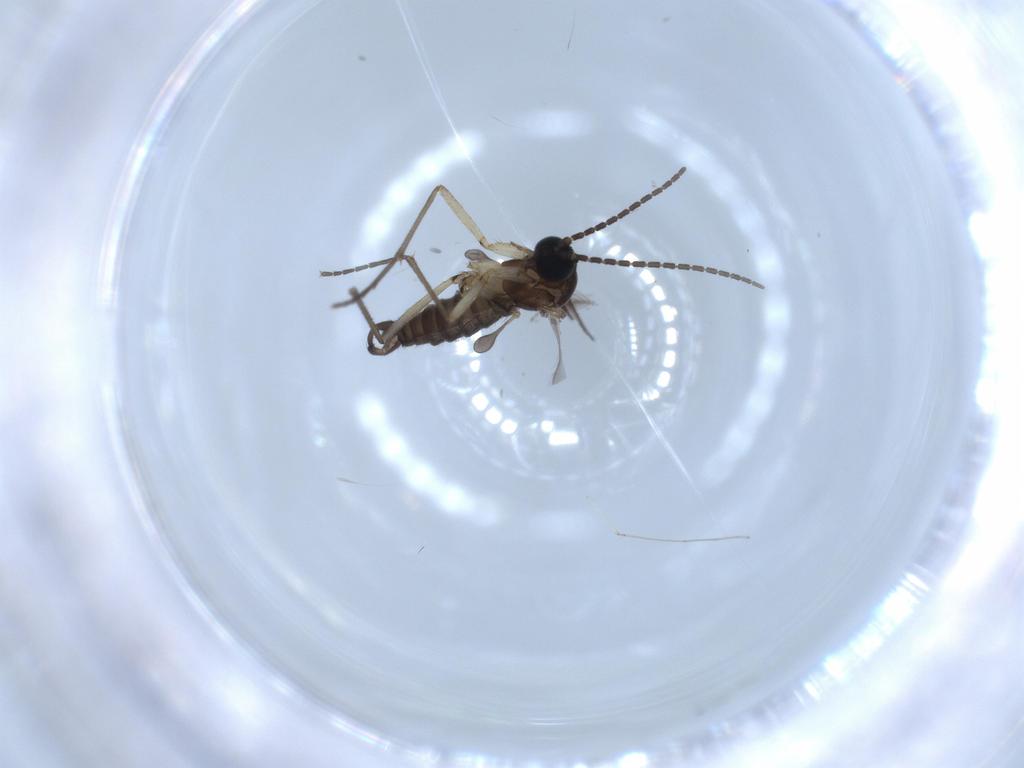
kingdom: Animalia
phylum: Arthropoda
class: Insecta
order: Diptera
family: Sciaridae
